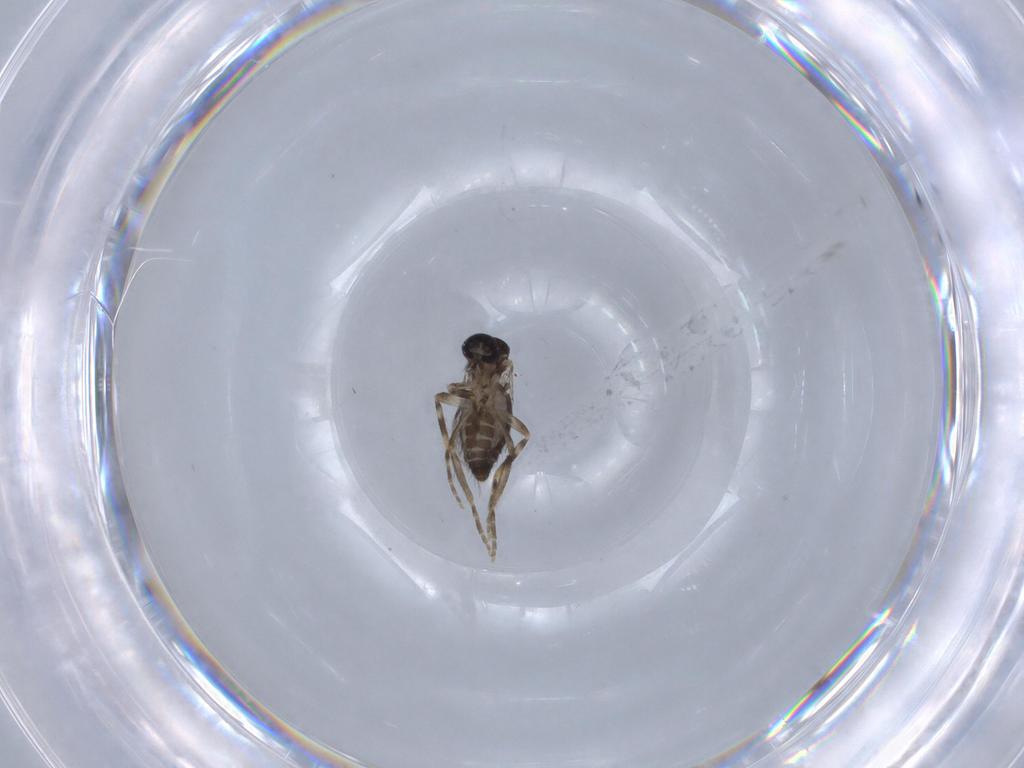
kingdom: Animalia
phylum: Arthropoda
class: Insecta
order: Diptera
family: Ceratopogonidae
